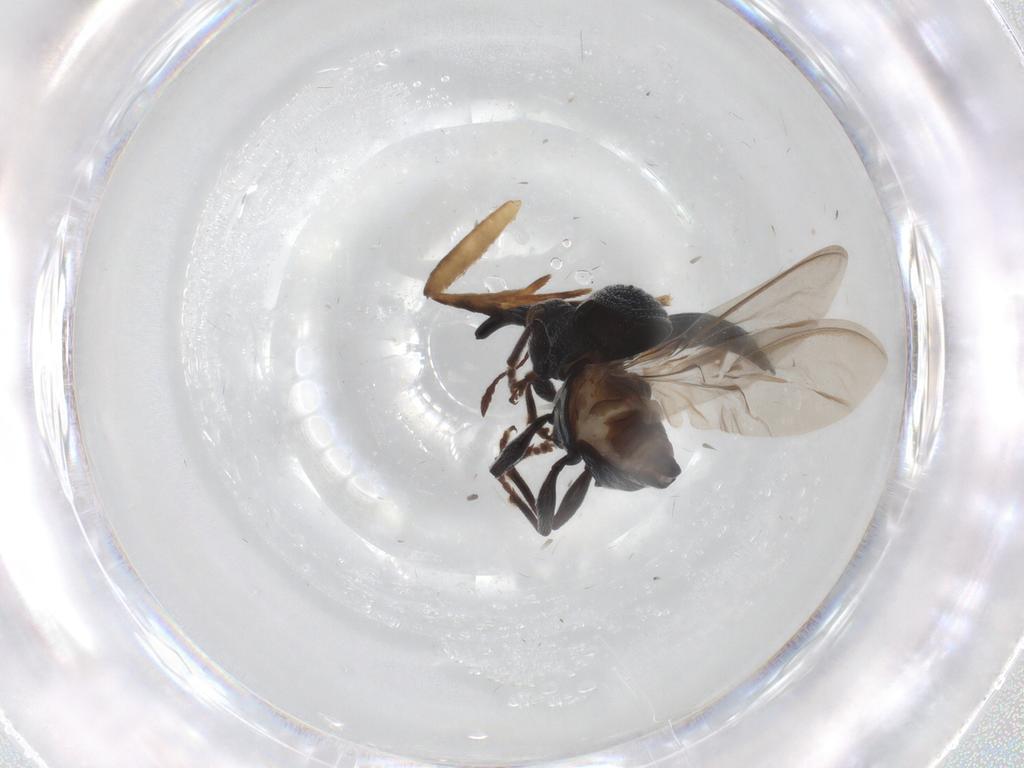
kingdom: Animalia
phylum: Arthropoda
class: Insecta
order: Coleoptera
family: Brentidae
